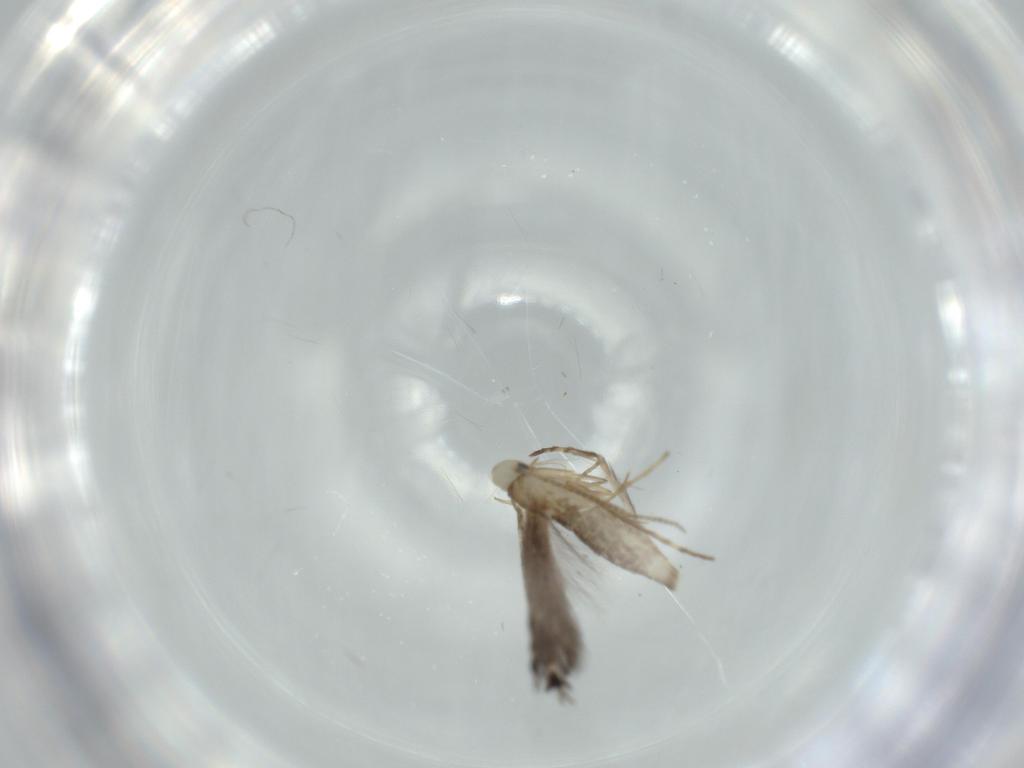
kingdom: Animalia
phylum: Arthropoda
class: Insecta
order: Lepidoptera
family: Gracillariidae
